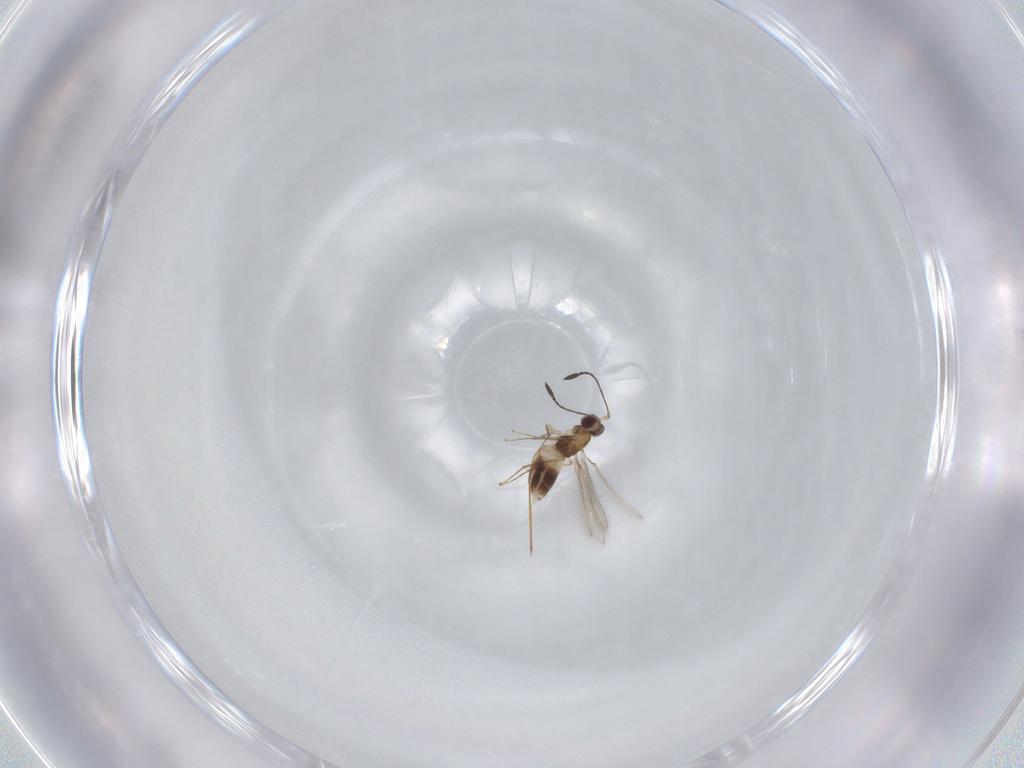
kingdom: Animalia
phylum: Arthropoda
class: Insecta
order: Hymenoptera
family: Mymaridae
